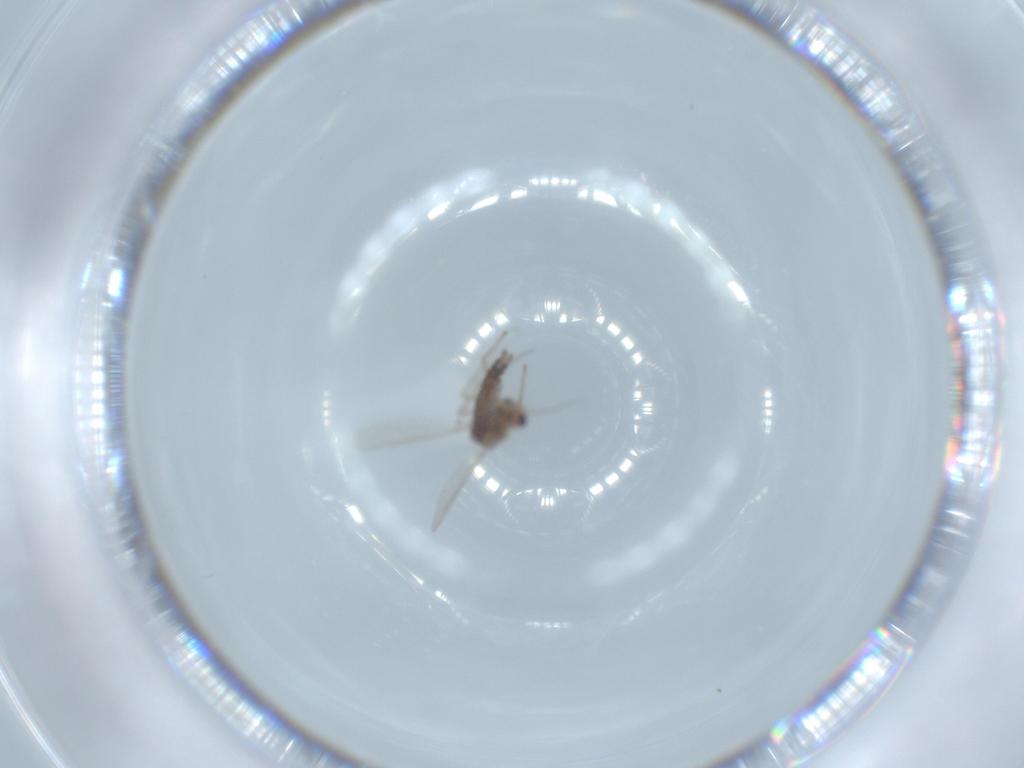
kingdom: Animalia
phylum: Arthropoda
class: Insecta
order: Diptera
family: Chironomidae
